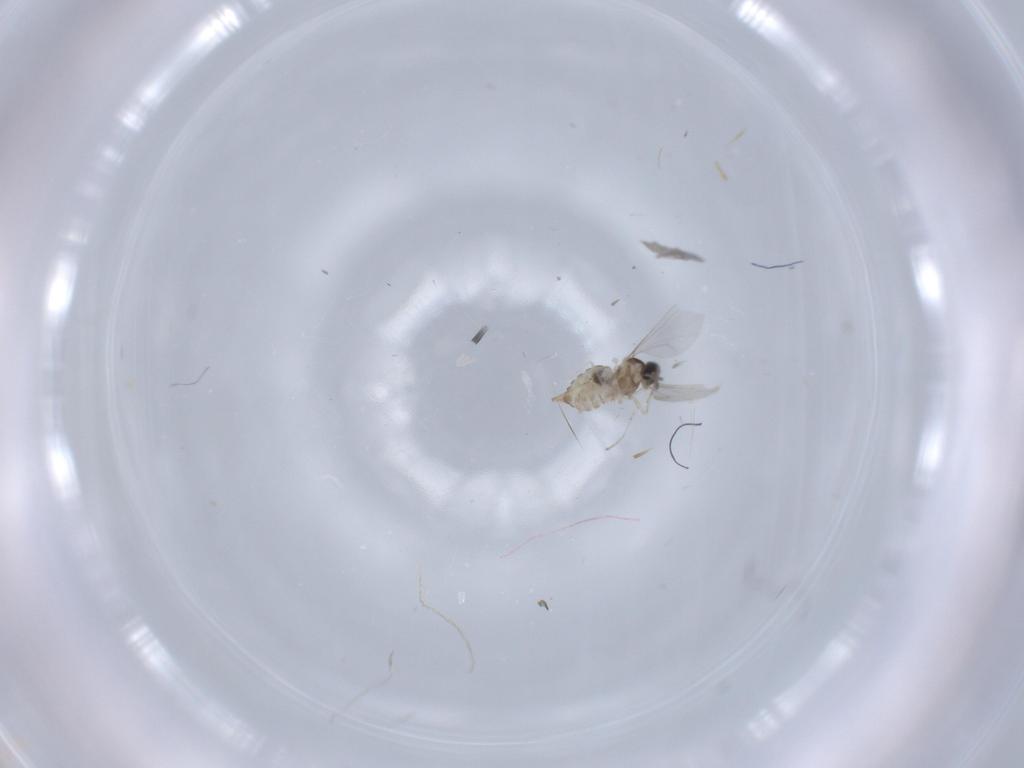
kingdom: Animalia
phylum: Arthropoda
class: Insecta
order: Diptera
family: Cecidomyiidae
